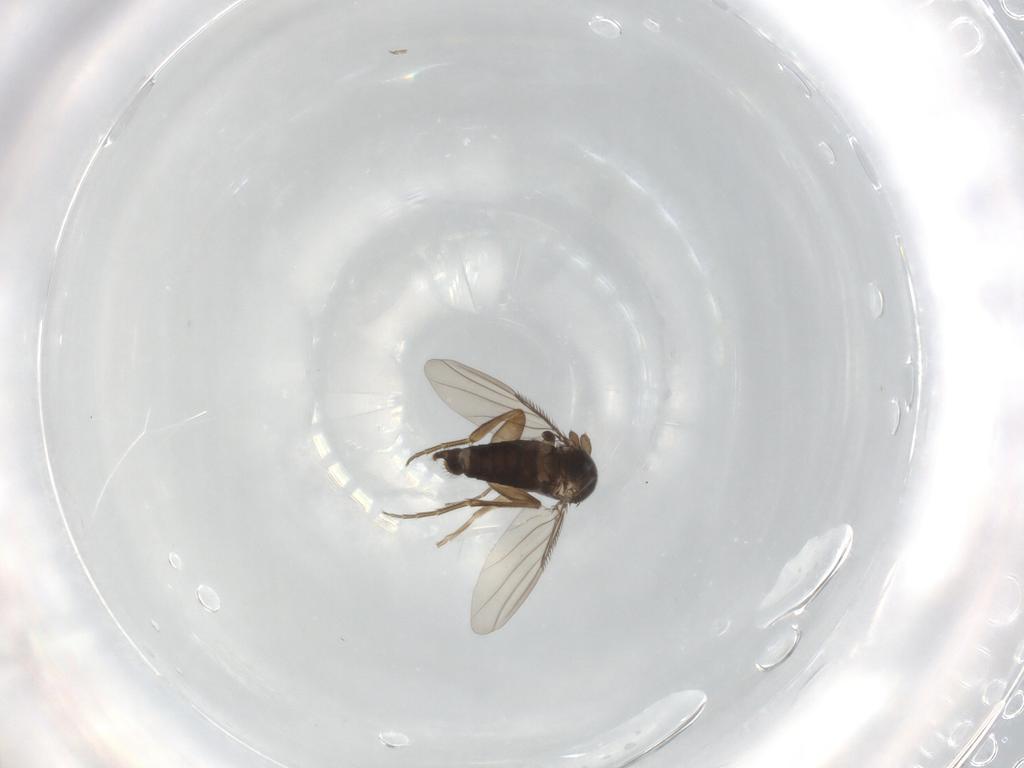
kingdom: Animalia
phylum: Arthropoda
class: Insecta
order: Diptera
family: Phoridae
